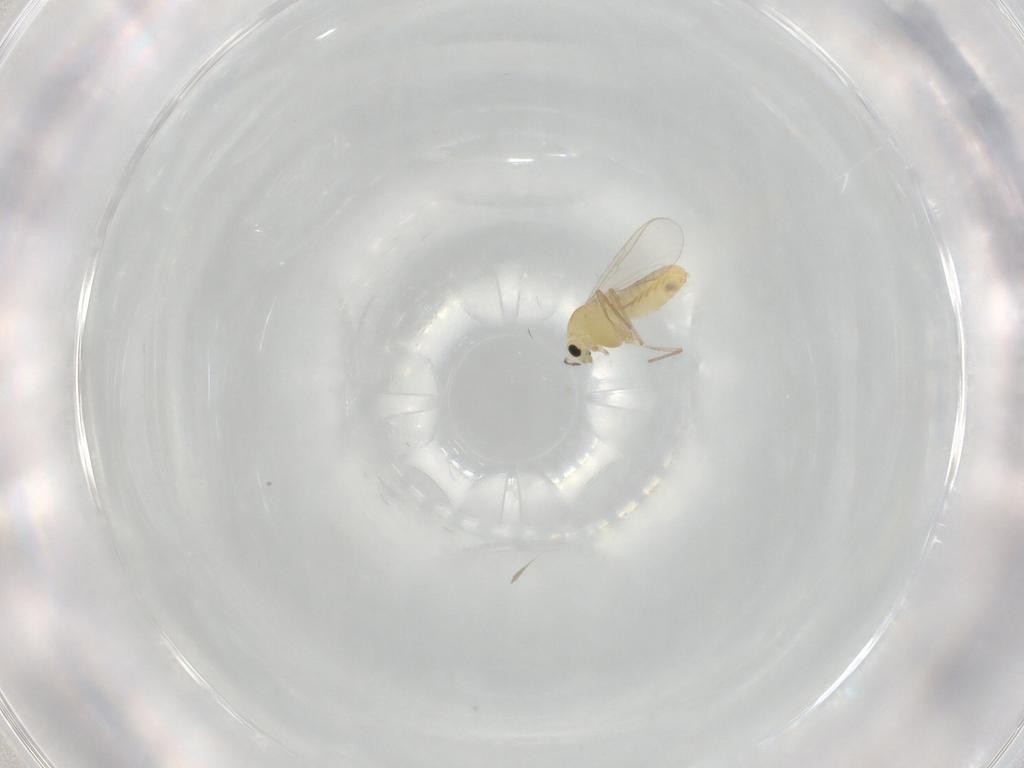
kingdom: Animalia
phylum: Arthropoda
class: Insecta
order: Diptera
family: Chironomidae
